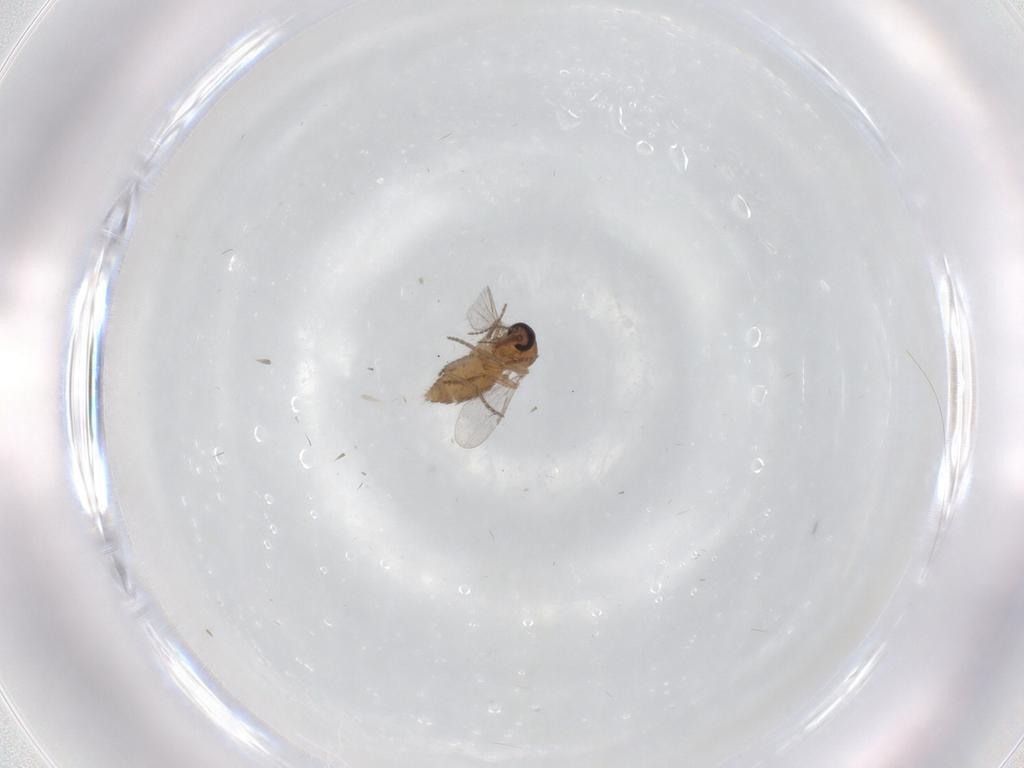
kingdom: Animalia
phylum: Arthropoda
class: Insecta
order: Diptera
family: Ceratopogonidae
